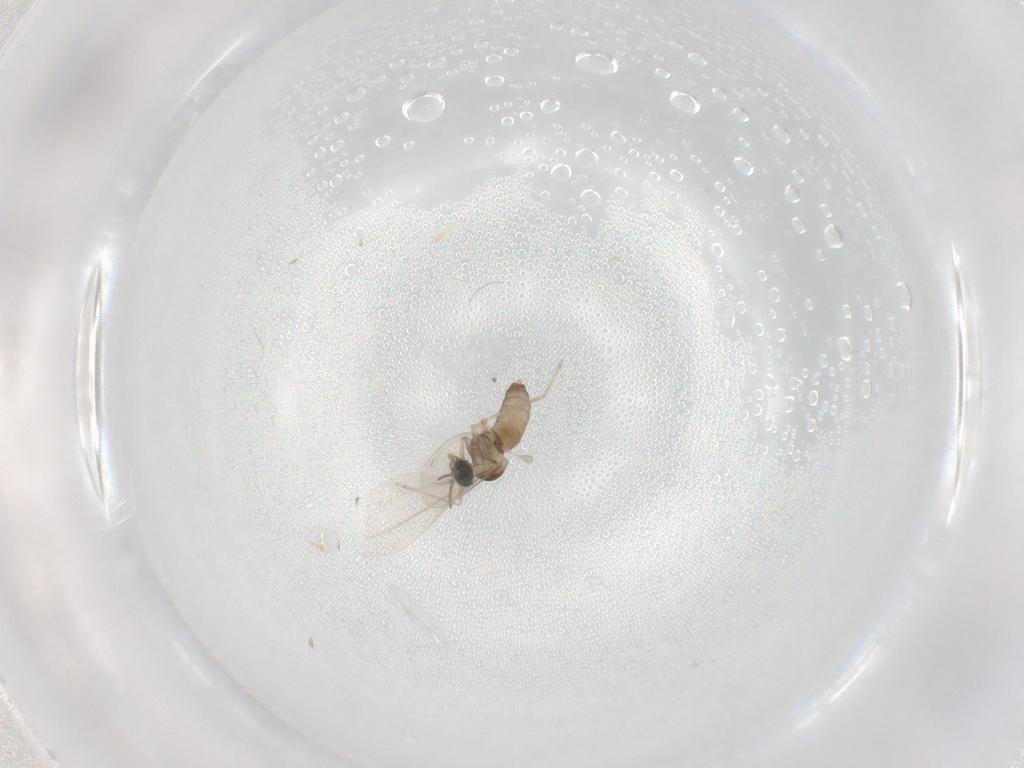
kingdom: Animalia
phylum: Arthropoda
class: Insecta
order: Diptera
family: Cecidomyiidae
